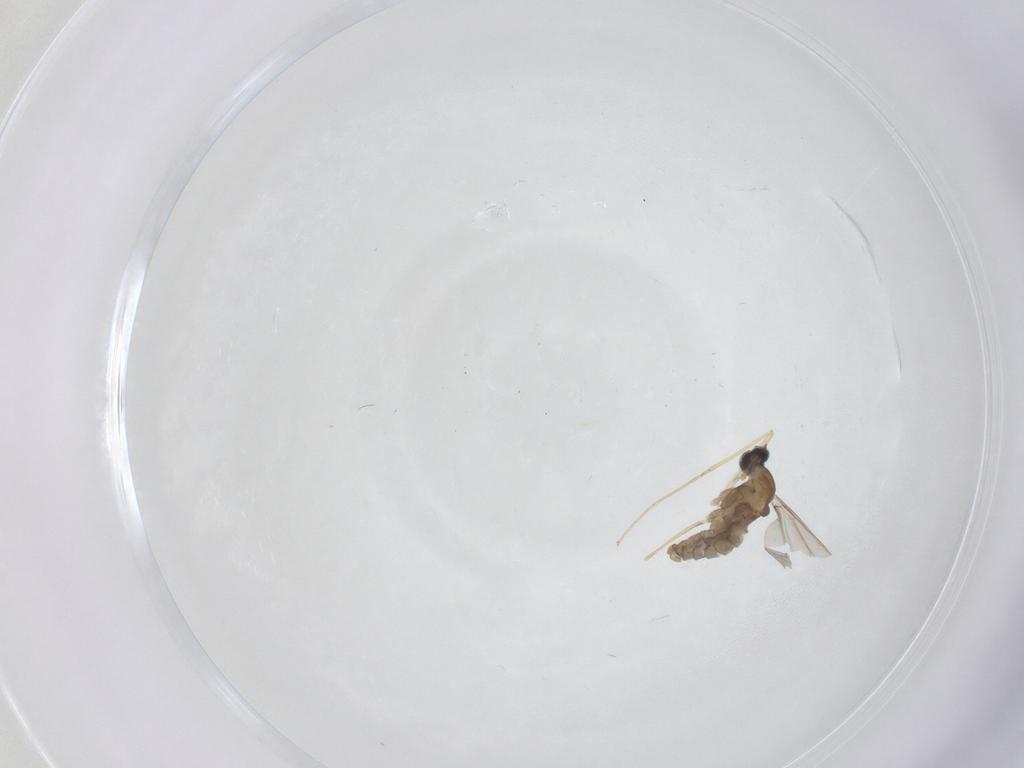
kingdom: Animalia
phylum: Arthropoda
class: Insecta
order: Diptera
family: Cecidomyiidae
